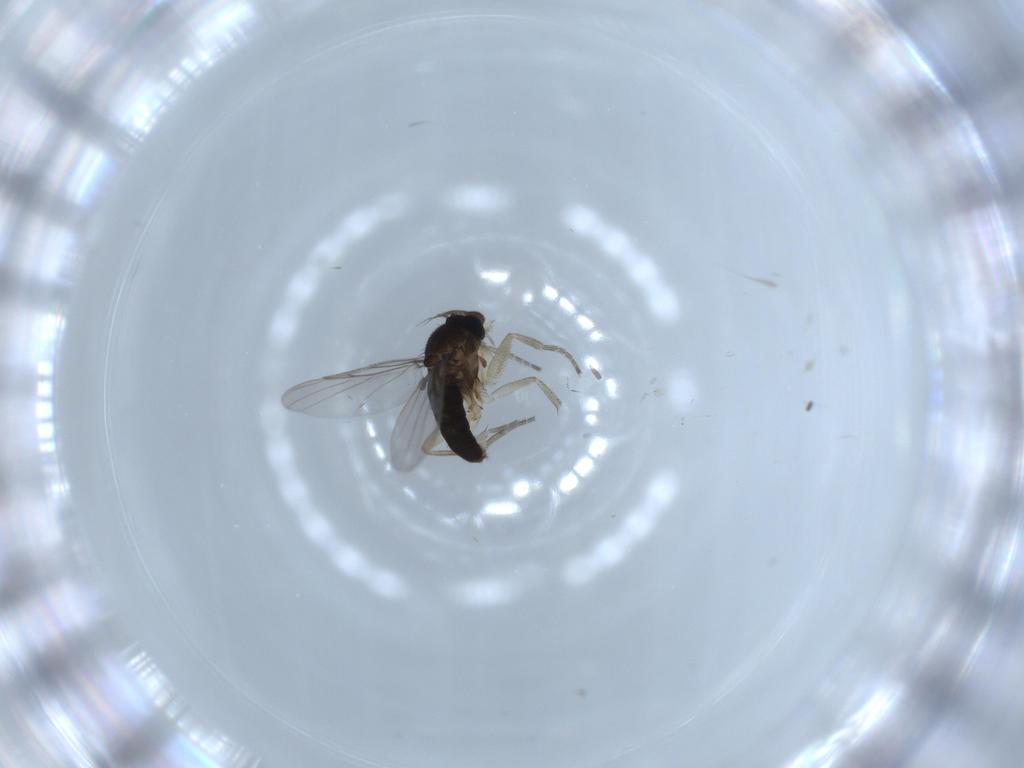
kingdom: Animalia
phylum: Arthropoda
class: Insecta
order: Diptera
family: Phoridae
